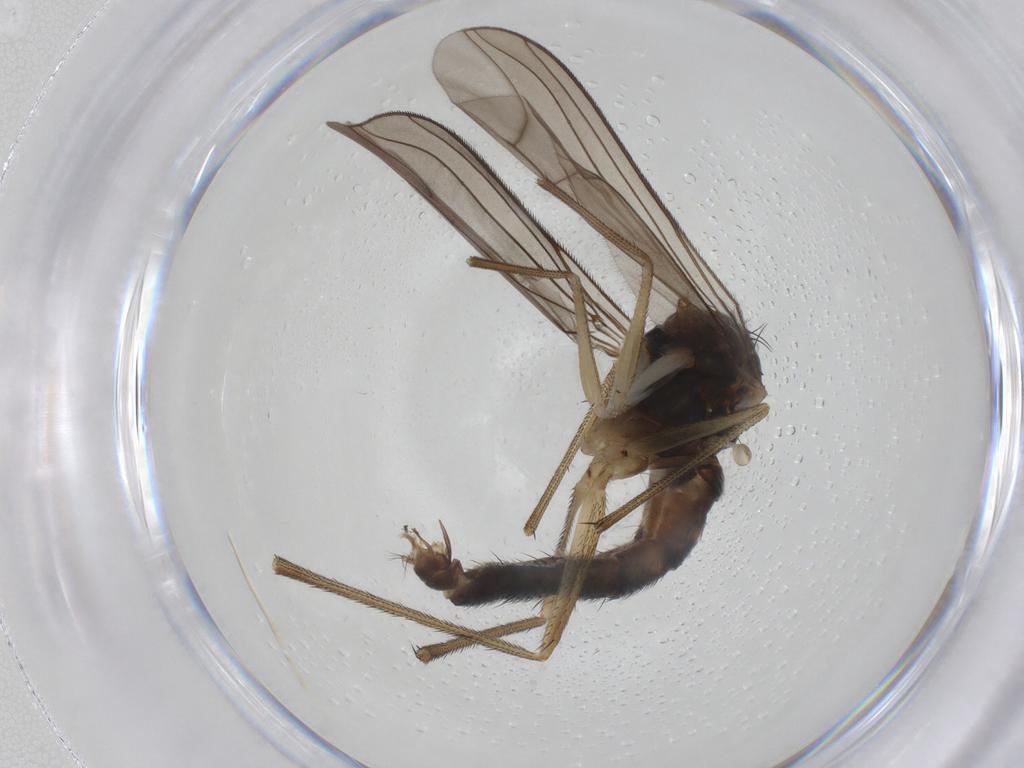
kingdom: Animalia
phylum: Arthropoda
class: Insecta
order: Diptera
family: Dolichopodidae
